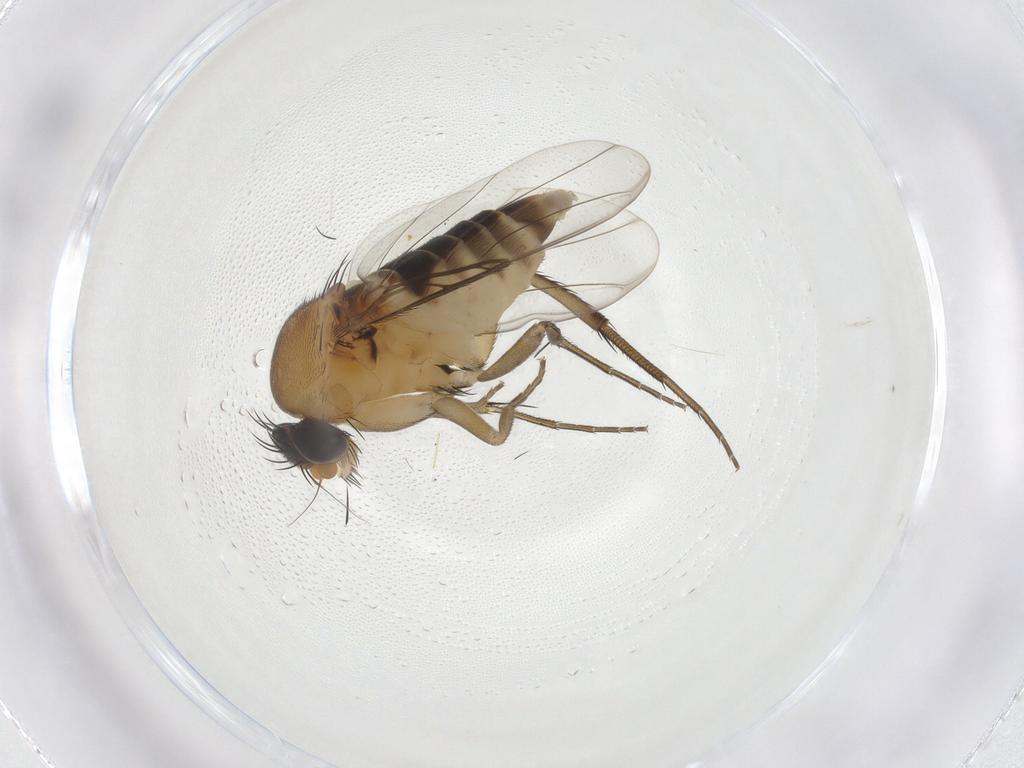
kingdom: Animalia
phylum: Arthropoda
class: Insecta
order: Diptera
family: Phoridae
